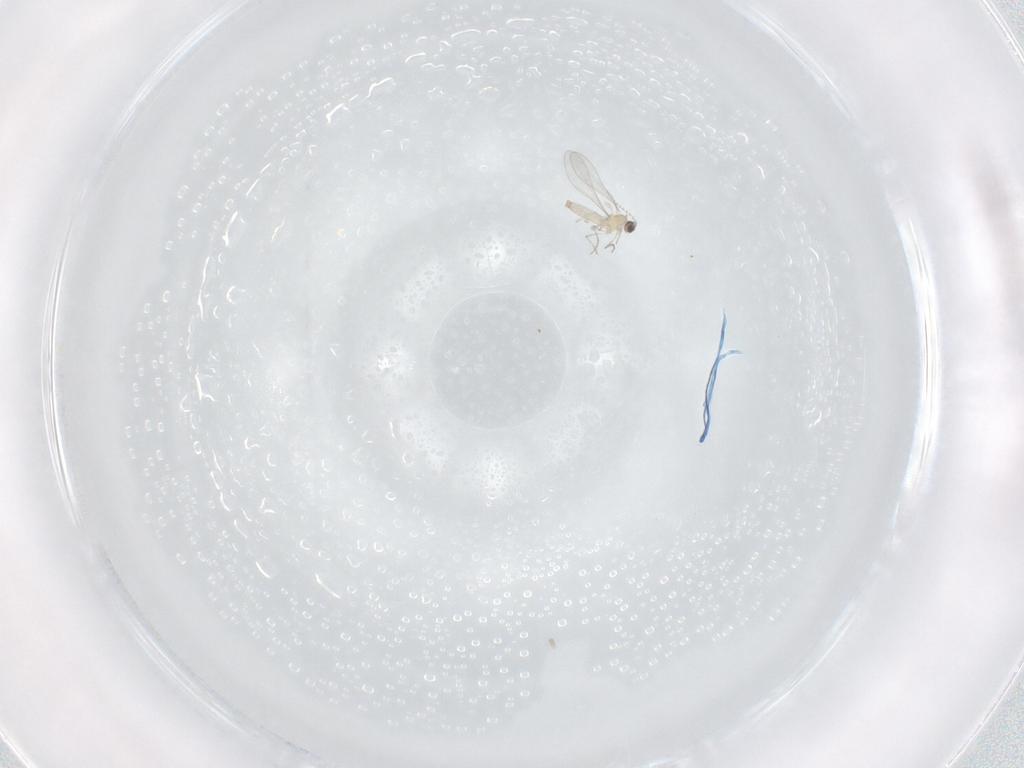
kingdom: Animalia
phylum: Arthropoda
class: Insecta
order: Diptera
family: Cecidomyiidae
